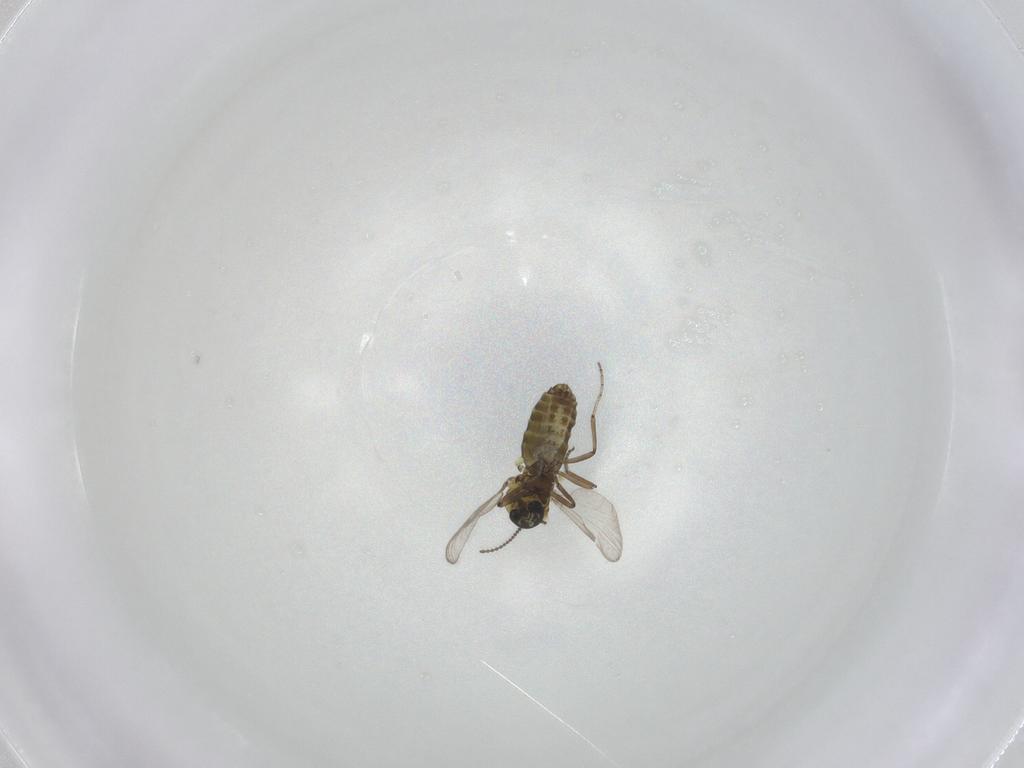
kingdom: Animalia
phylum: Arthropoda
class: Insecta
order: Diptera
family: Ceratopogonidae
